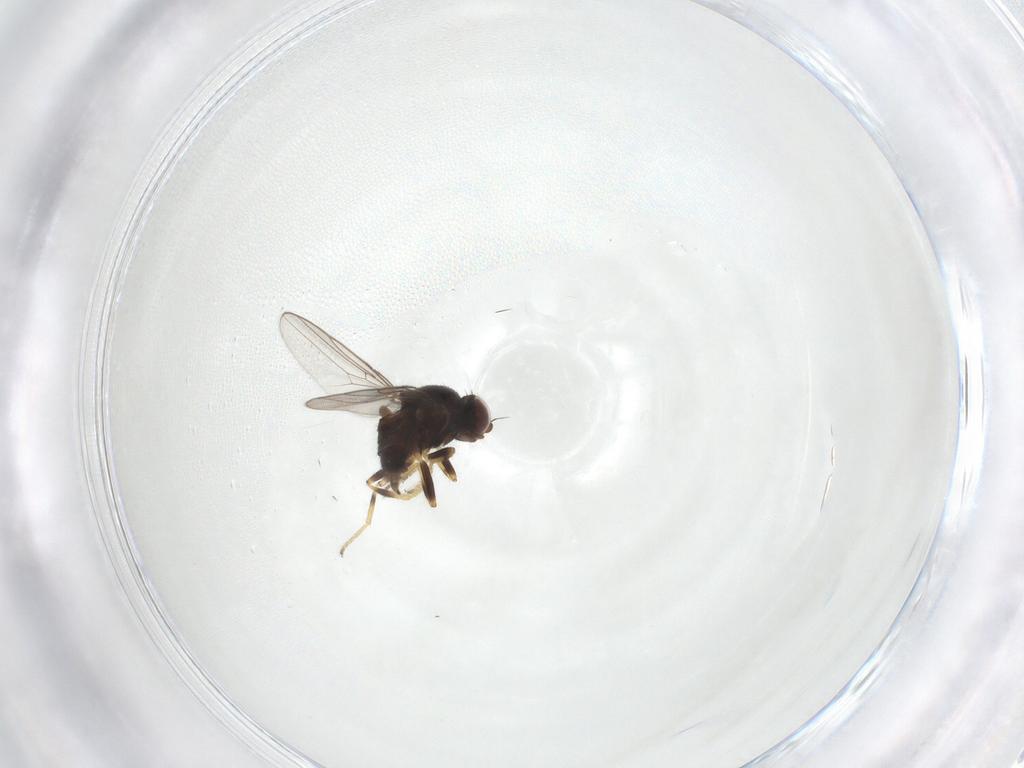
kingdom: Animalia
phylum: Arthropoda
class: Insecta
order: Diptera
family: Chloropidae
